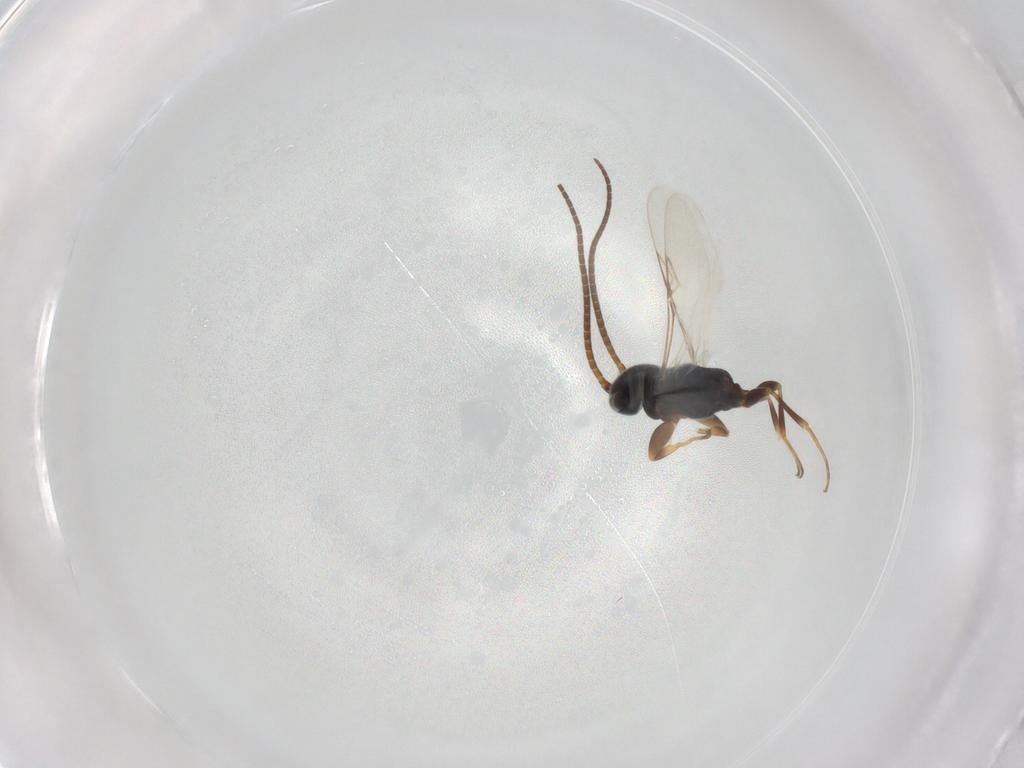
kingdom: Animalia
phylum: Arthropoda
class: Insecta
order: Hymenoptera
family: Sclerogibbidae
